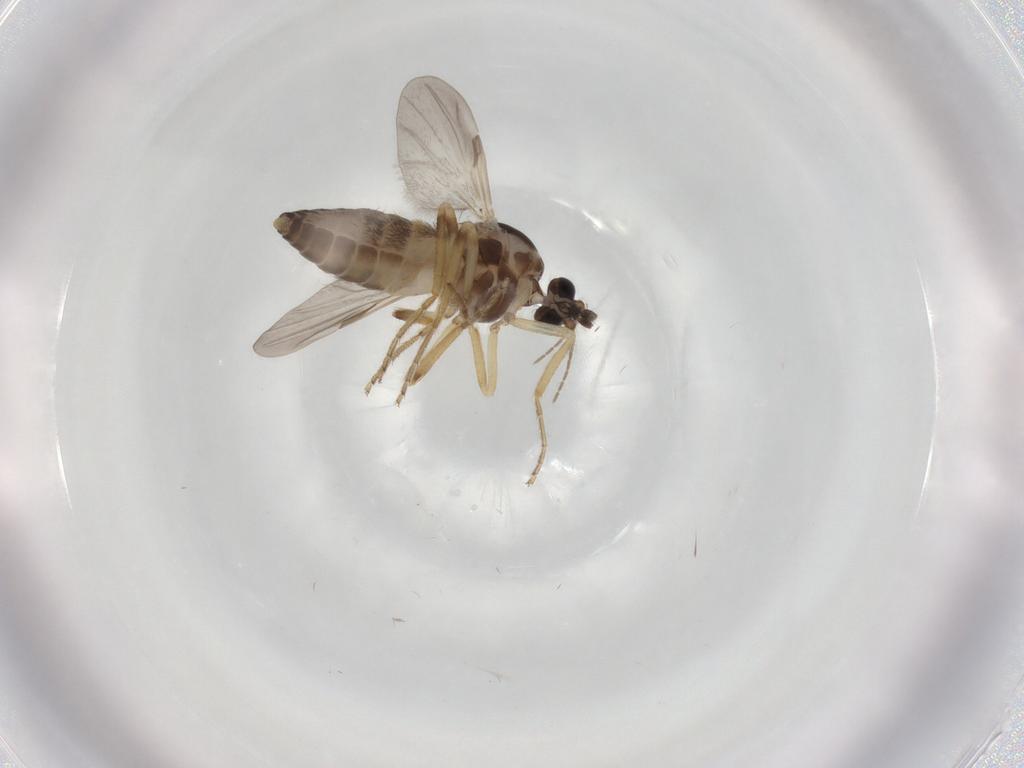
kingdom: Animalia
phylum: Arthropoda
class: Insecta
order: Diptera
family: Ceratopogonidae
